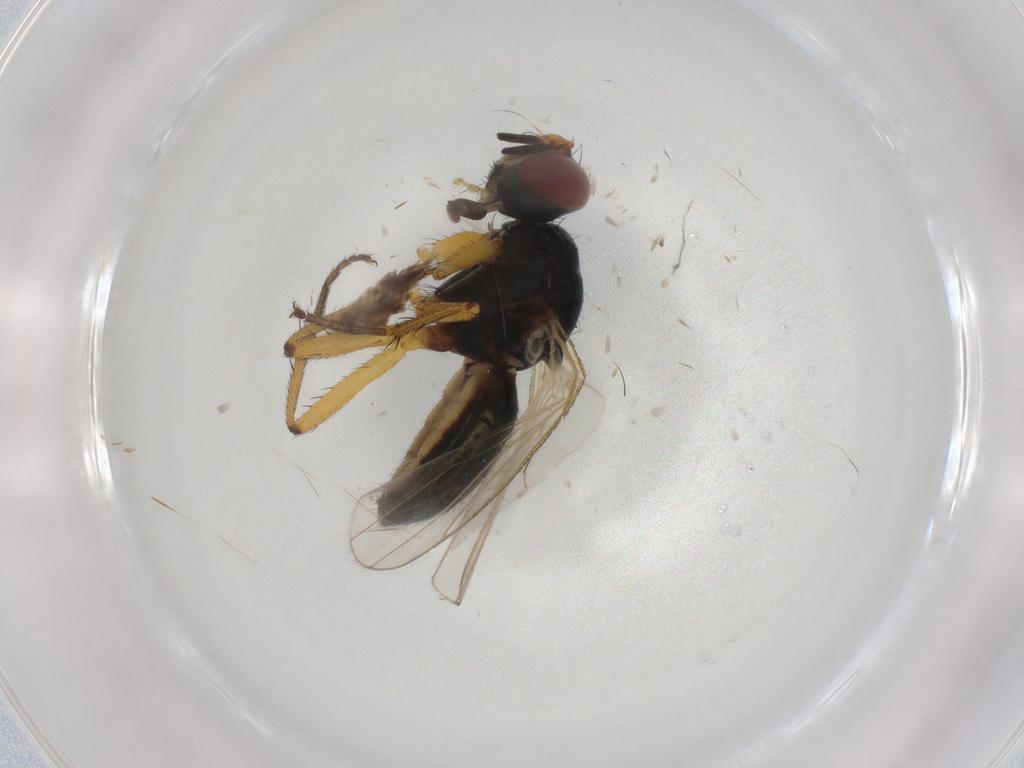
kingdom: Animalia
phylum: Arthropoda
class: Insecta
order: Diptera
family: Muscidae
